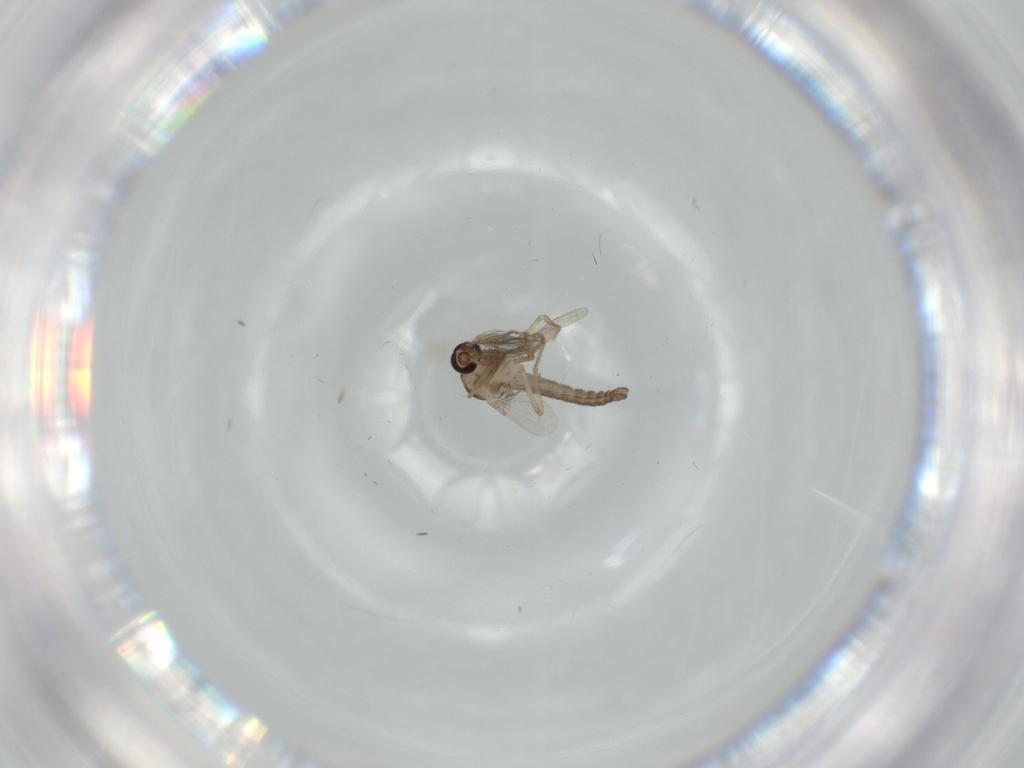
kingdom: Animalia
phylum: Arthropoda
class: Insecta
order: Diptera
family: Ceratopogonidae
